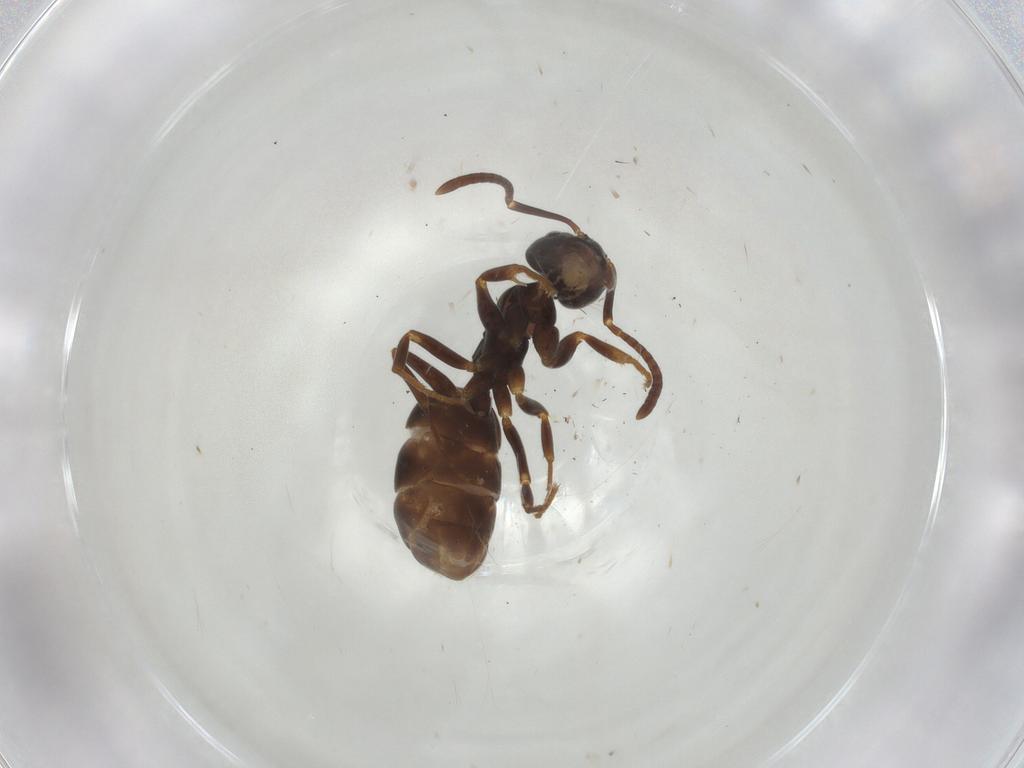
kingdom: Animalia
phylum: Arthropoda
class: Insecta
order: Hymenoptera
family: Formicidae
